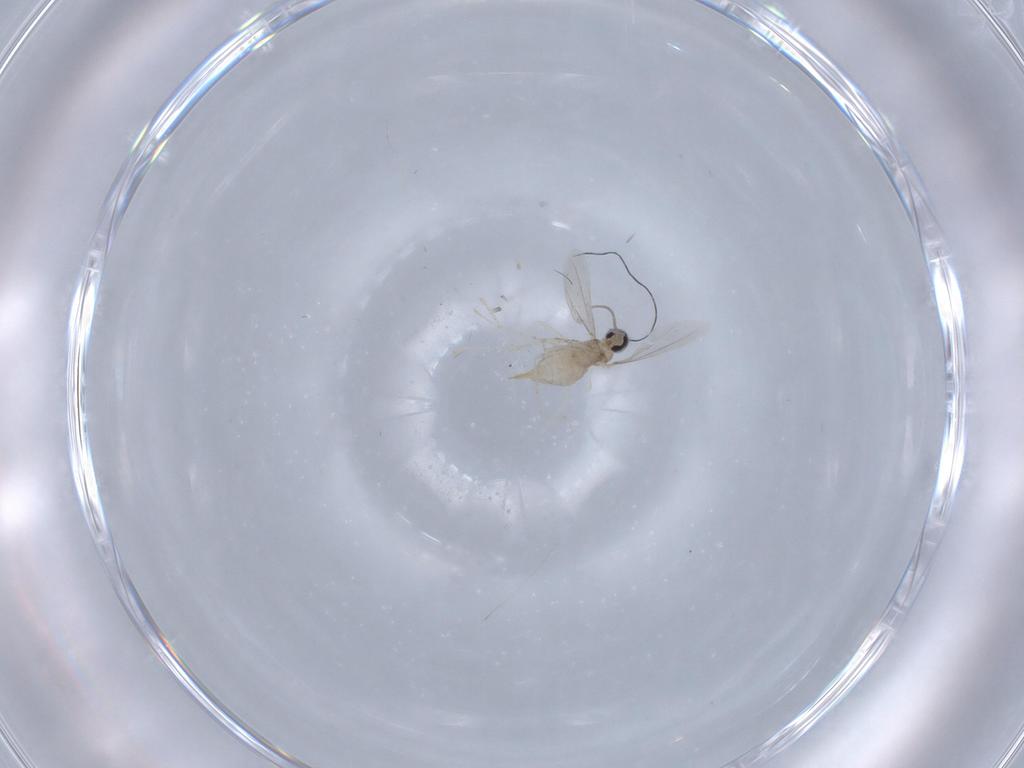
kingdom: Animalia
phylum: Arthropoda
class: Insecta
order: Diptera
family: Cecidomyiidae
